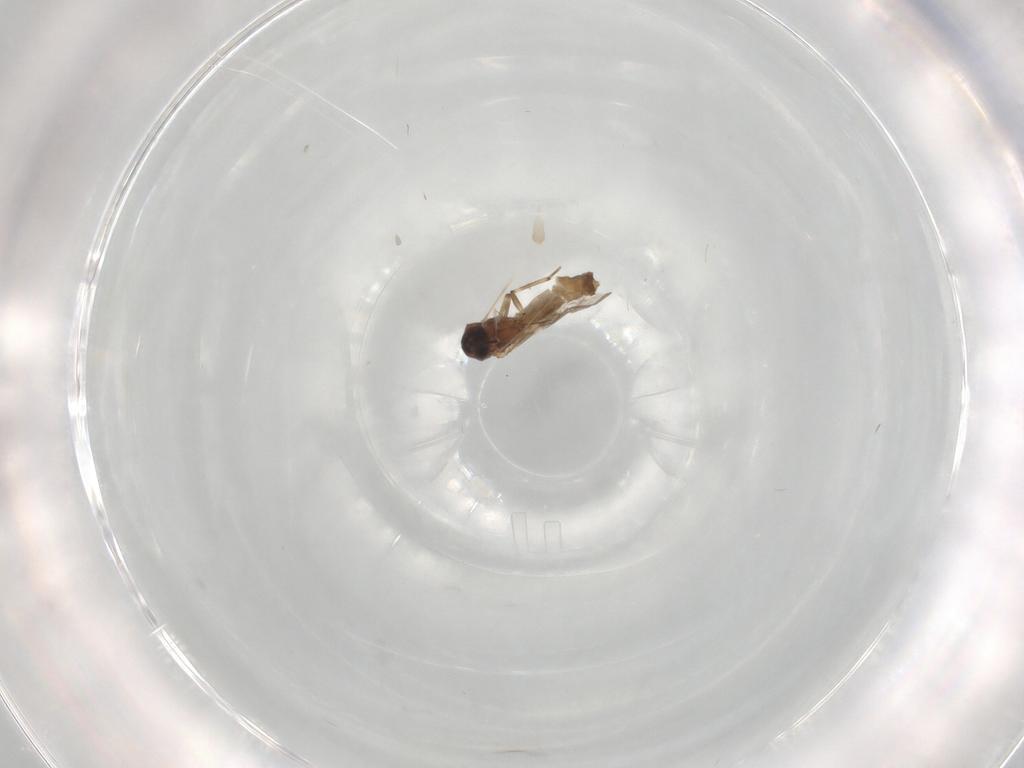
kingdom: Animalia
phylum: Arthropoda
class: Insecta
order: Diptera
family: Ceratopogonidae
